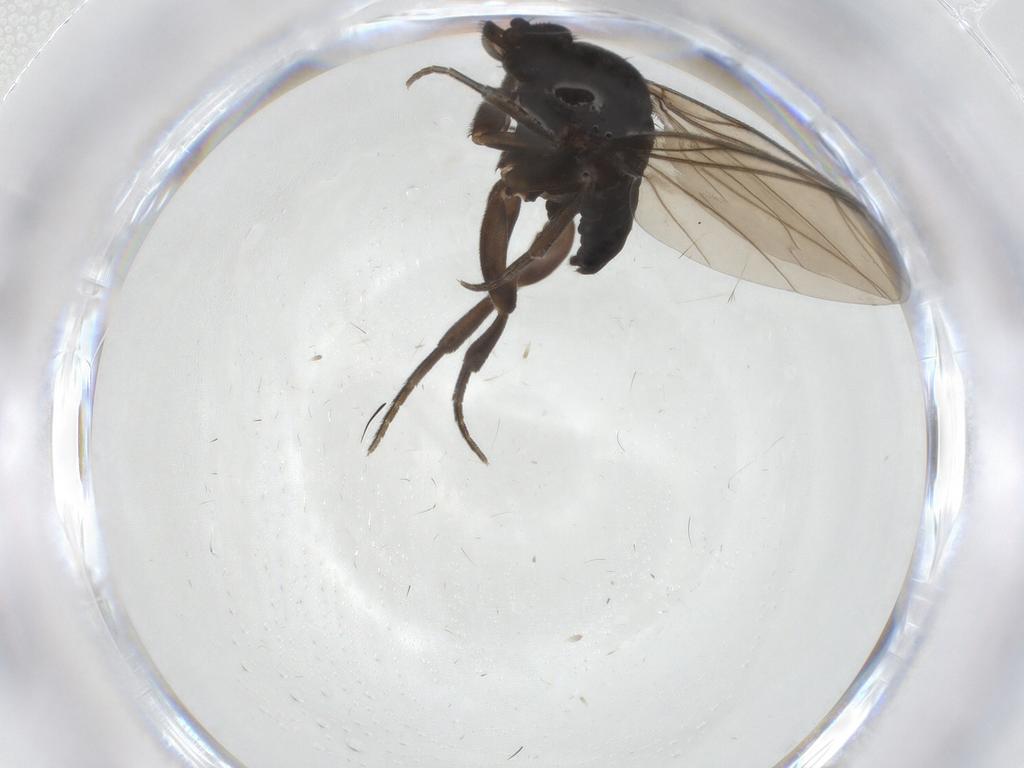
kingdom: Animalia
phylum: Arthropoda
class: Insecta
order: Diptera
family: Phoridae
